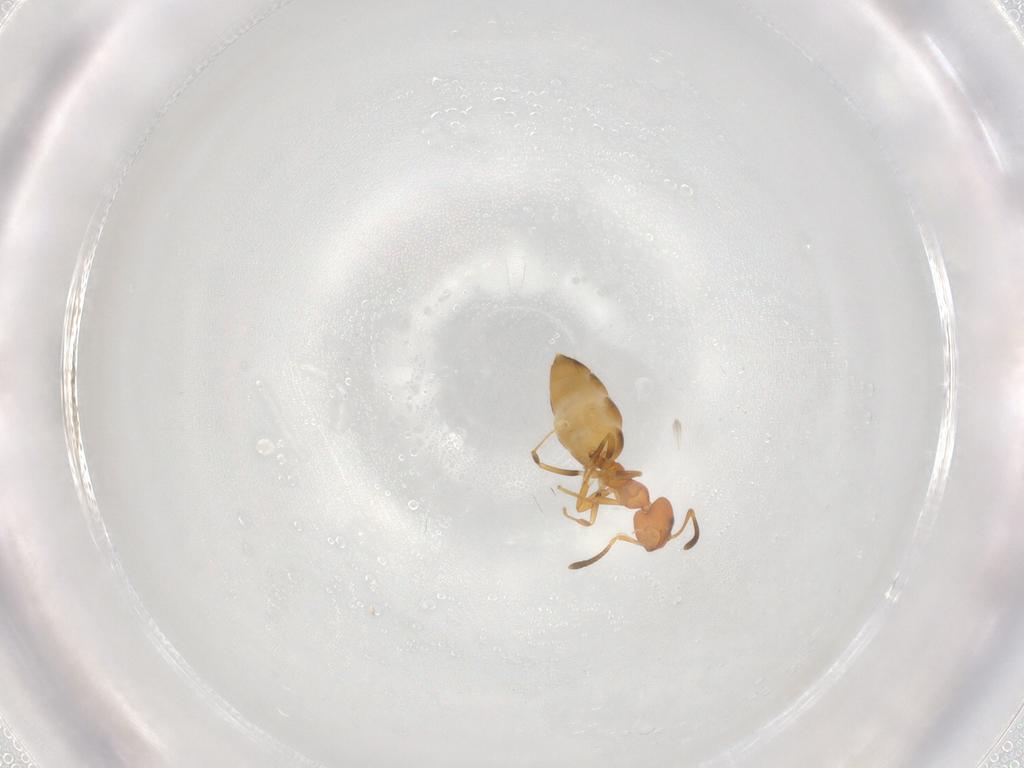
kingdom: Animalia
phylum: Arthropoda
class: Insecta
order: Hymenoptera
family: Formicidae
